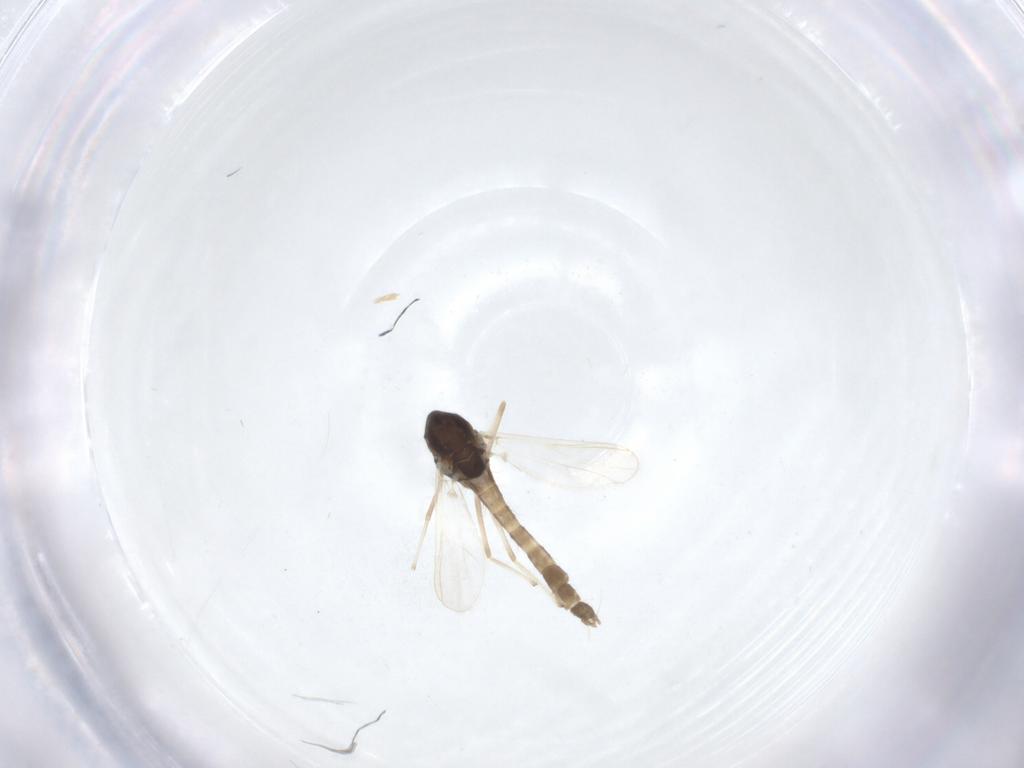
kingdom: Animalia
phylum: Arthropoda
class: Insecta
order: Diptera
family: Chironomidae
